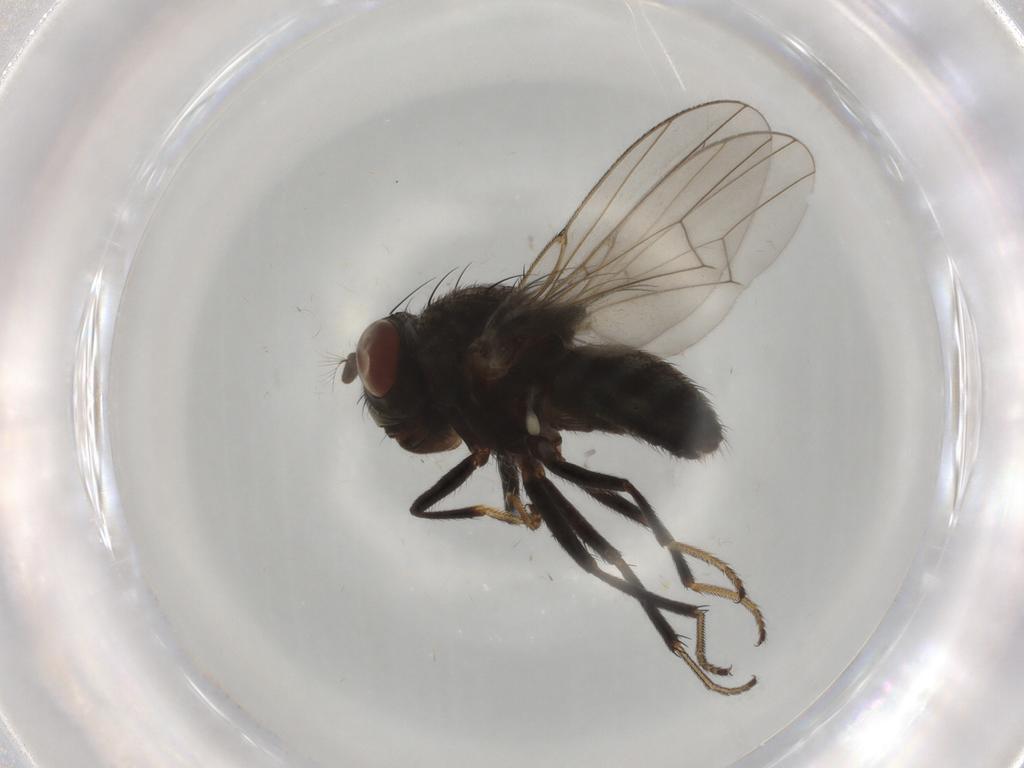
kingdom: Animalia
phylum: Arthropoda
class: Insecta
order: Diptera
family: Ephydridae
